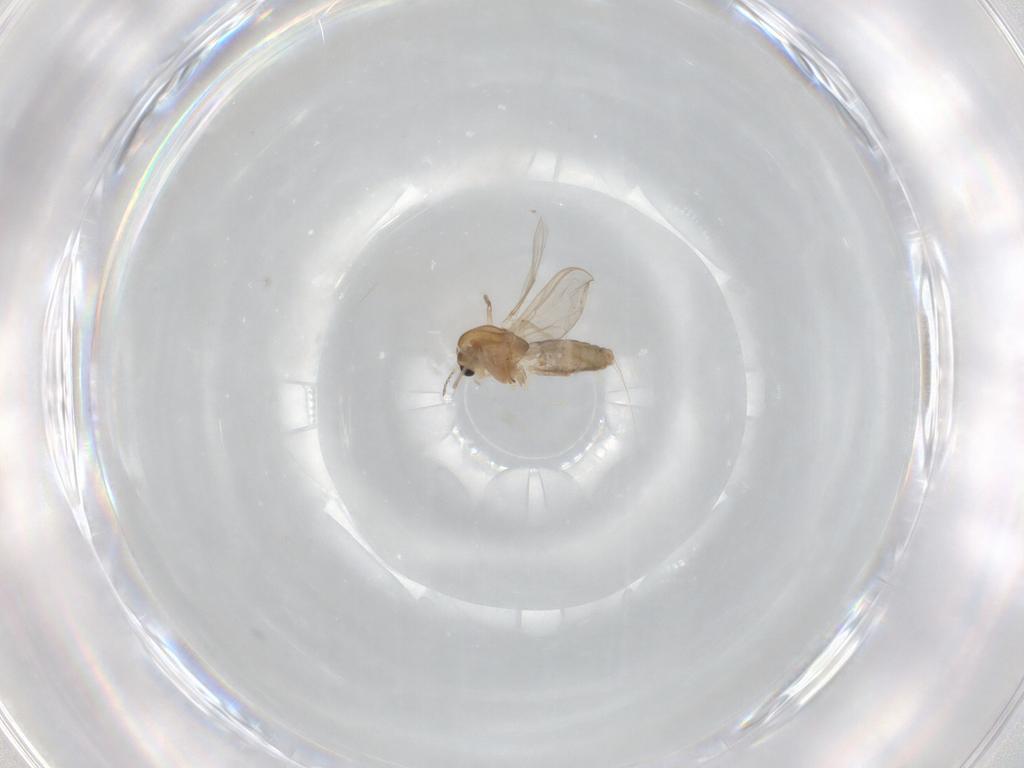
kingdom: Animalia
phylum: Arthropoda
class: Insecta
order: Diptera
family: Chironomidae
